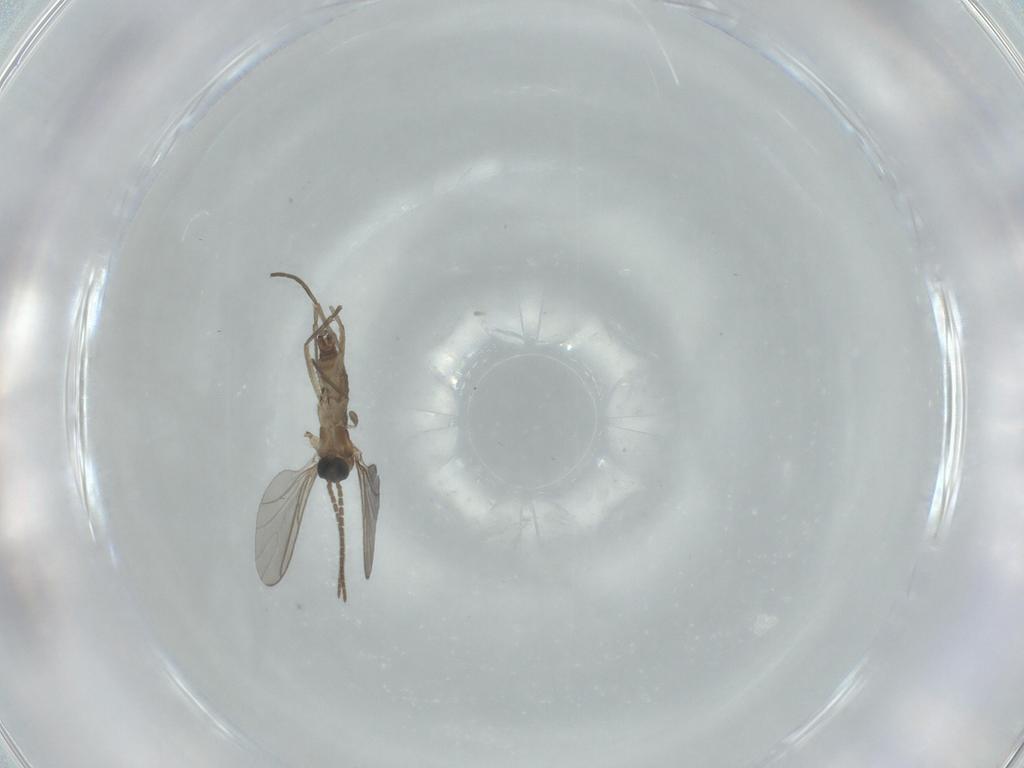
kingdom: Animalia
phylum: Arthropoda
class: Insecta
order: Diptera
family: Sciaridae
